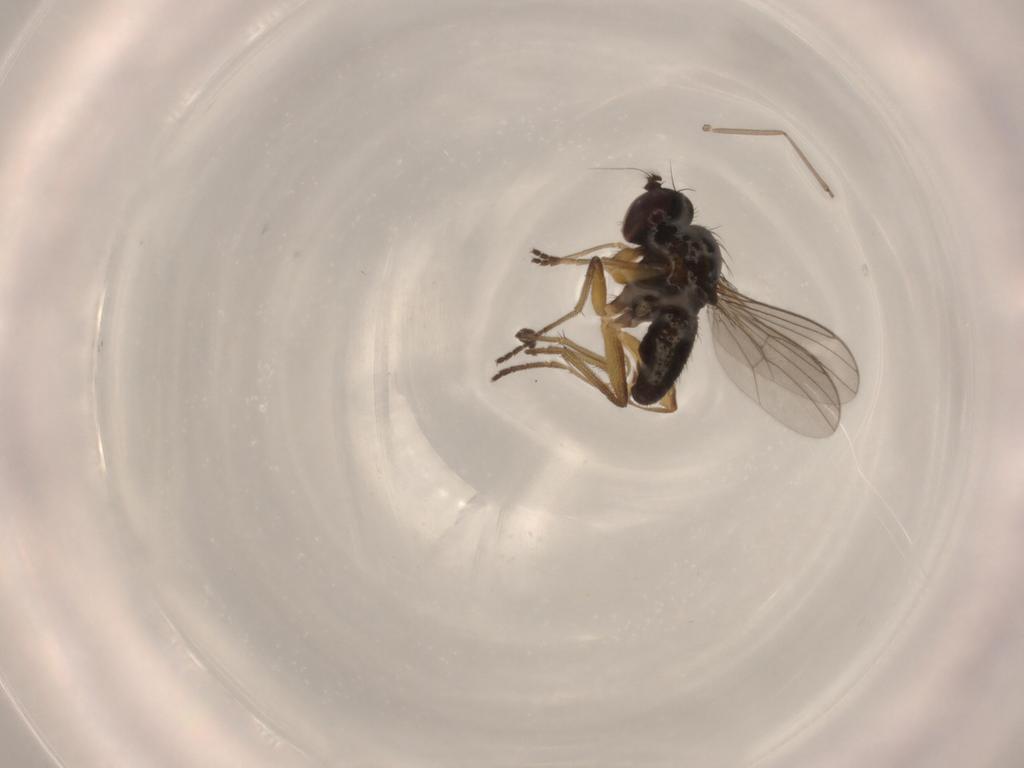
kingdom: Animalia
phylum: Arthropoda
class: Insecta
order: Diptera
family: Dolichopodidae
